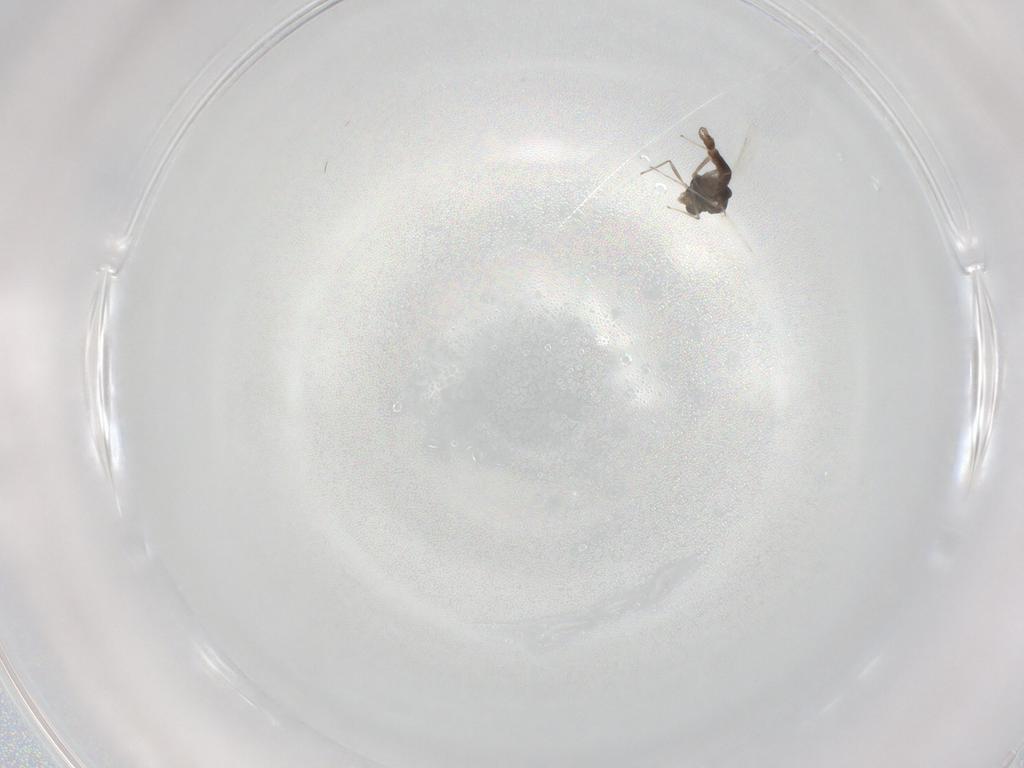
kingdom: Animalia
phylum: Arthropoda
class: Insecta
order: Diptera
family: Chironomidae
